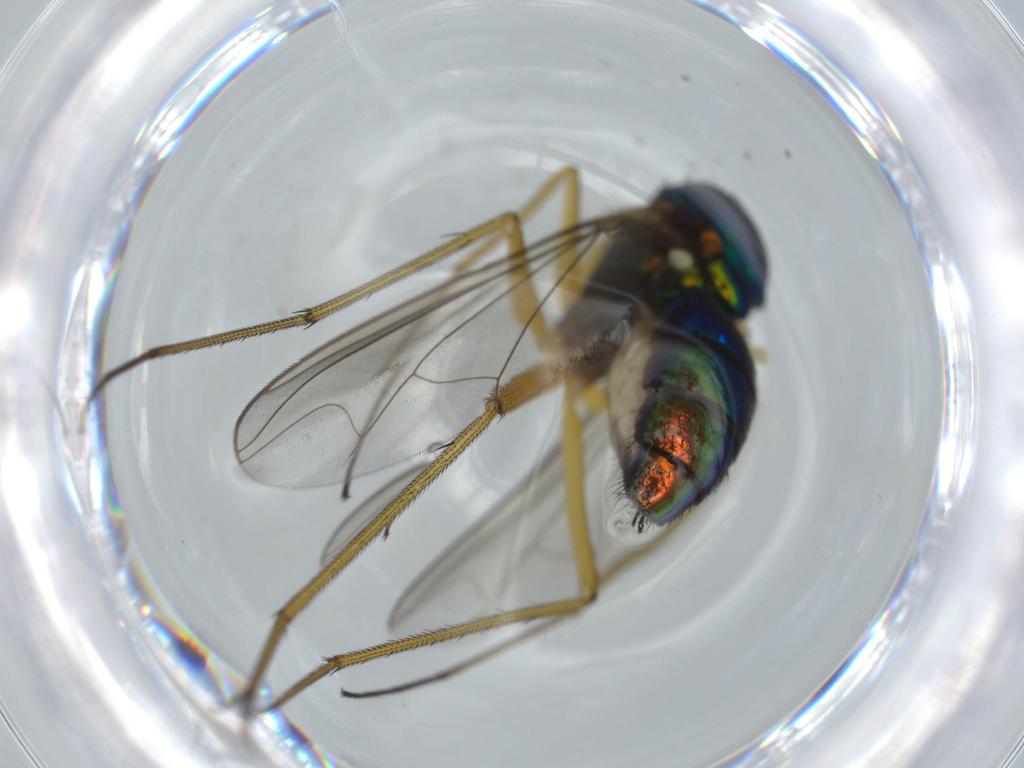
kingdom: Animalia
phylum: Arthropoda
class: Insecta
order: Diptera
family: Dolichopodidae
